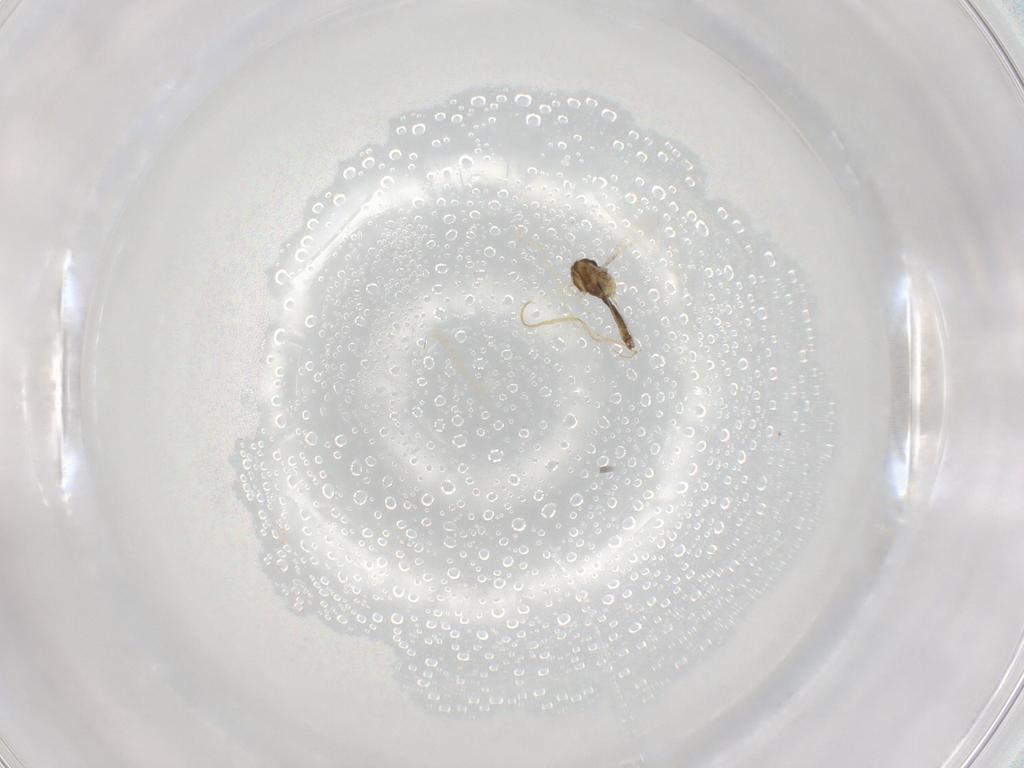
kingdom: Animalia
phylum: Arthropoda
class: Insecta
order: Diptera
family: Chironomidae
